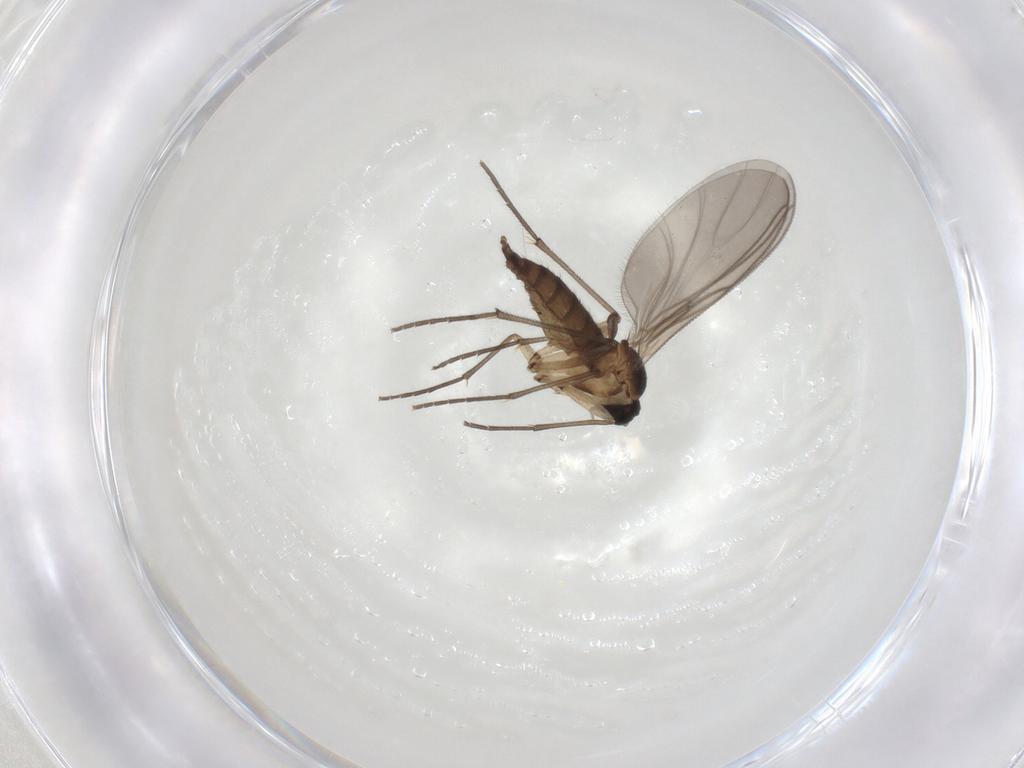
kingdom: Animalia
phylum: Arthropoda
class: Insecta
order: Diptera
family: Sciaridae
